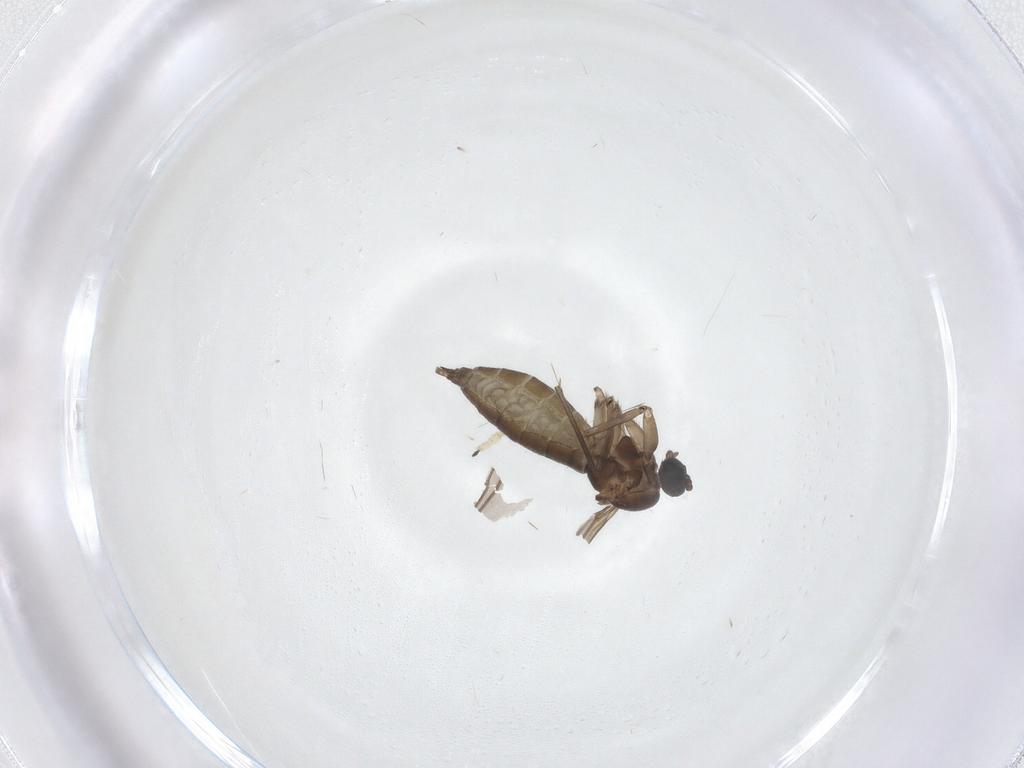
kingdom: Animalia
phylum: Arthropoda
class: Insecta
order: Diptera
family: Sciaridae
